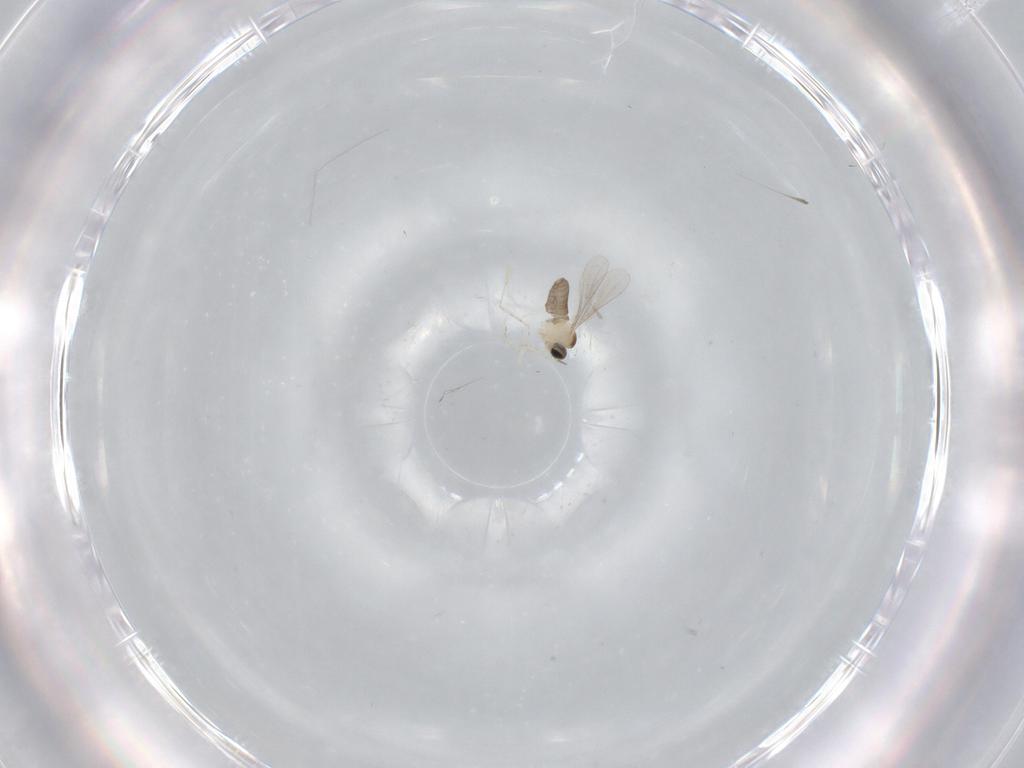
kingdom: Animalia
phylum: Arthropoda
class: Insecta
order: Diptera
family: Cecidomyiidae
